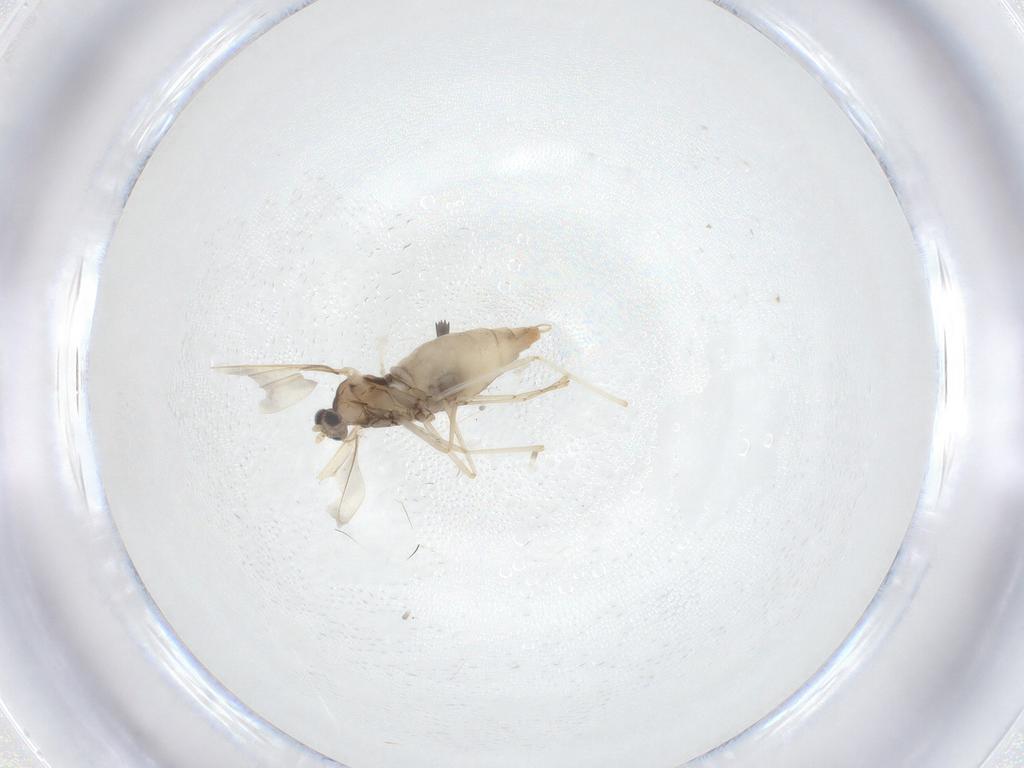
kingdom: Animalia
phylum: Arthropoda
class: Insecta
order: Diptera
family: Cecidomyiidae
